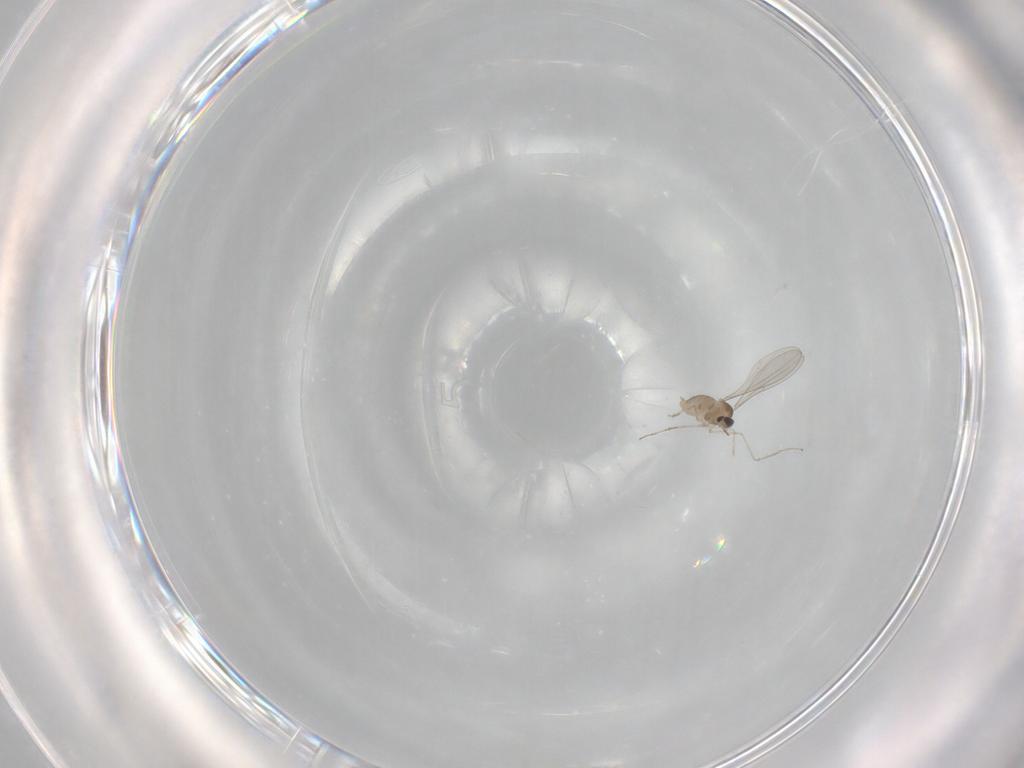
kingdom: Animalia
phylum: Arthropoda
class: Insecta
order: Diptera
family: Cecidomyiidae
